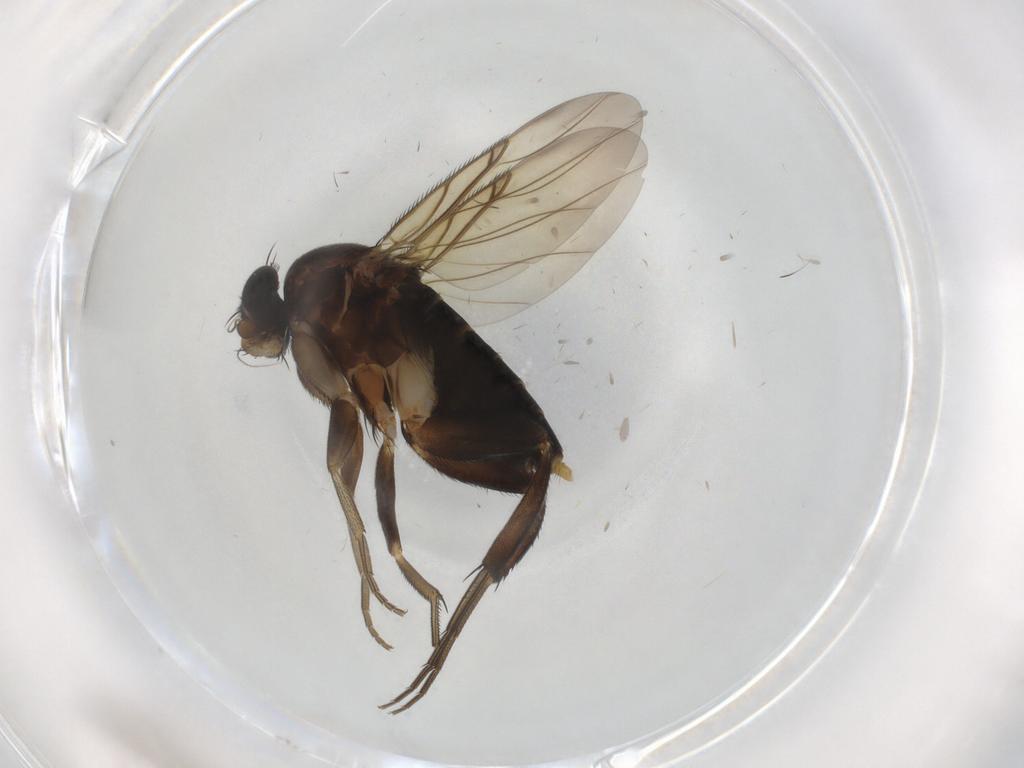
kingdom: Animalia
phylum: Arthropoda
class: Insecta
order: Diptera
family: Phoridae
